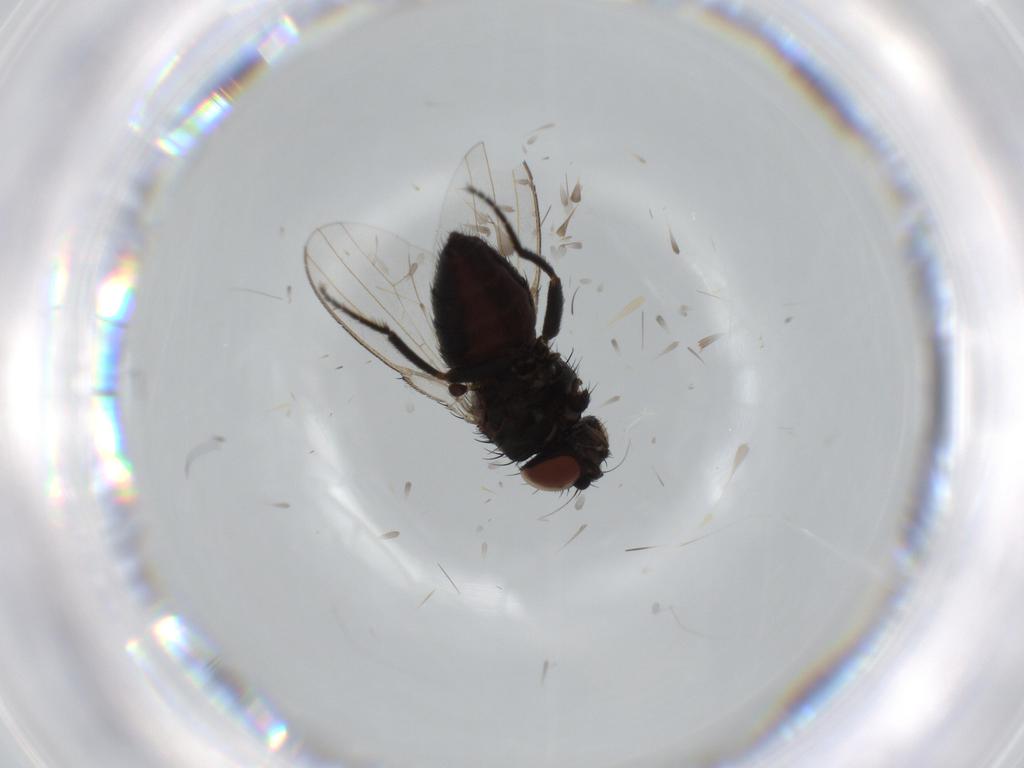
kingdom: Animalia
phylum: Arthropoda
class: Insecta
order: Diptera
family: Milichiidae
